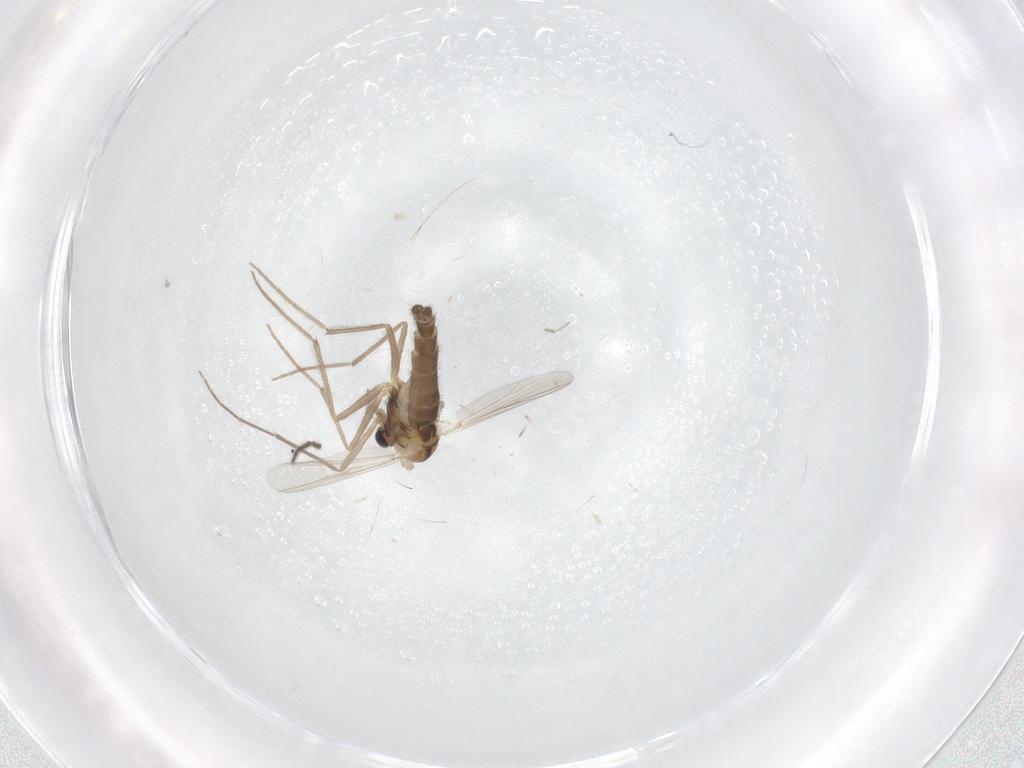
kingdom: Animalia
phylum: Arthropoda
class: Insecta
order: Diptera
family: Chironomidae
